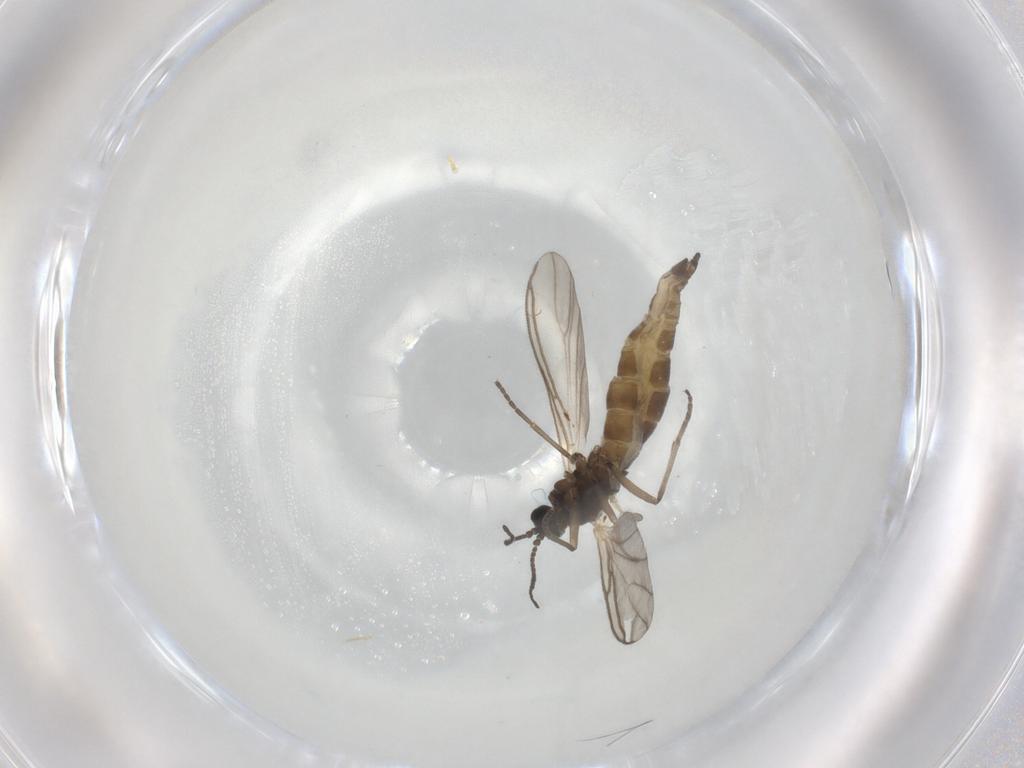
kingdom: Animalia
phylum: Arthropoda
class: Insecta
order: Diptera
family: Sciaridae
